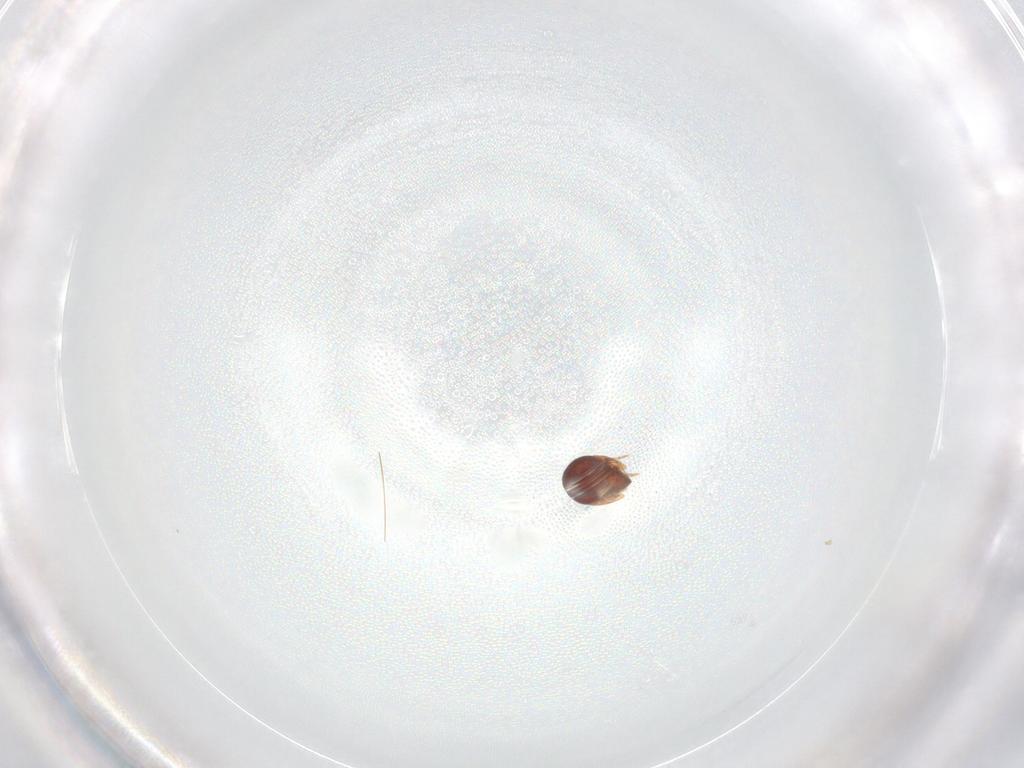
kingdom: Animalia
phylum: Arthropoda
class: Arachnida
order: Sarcoptiformes
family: Galumnidae
